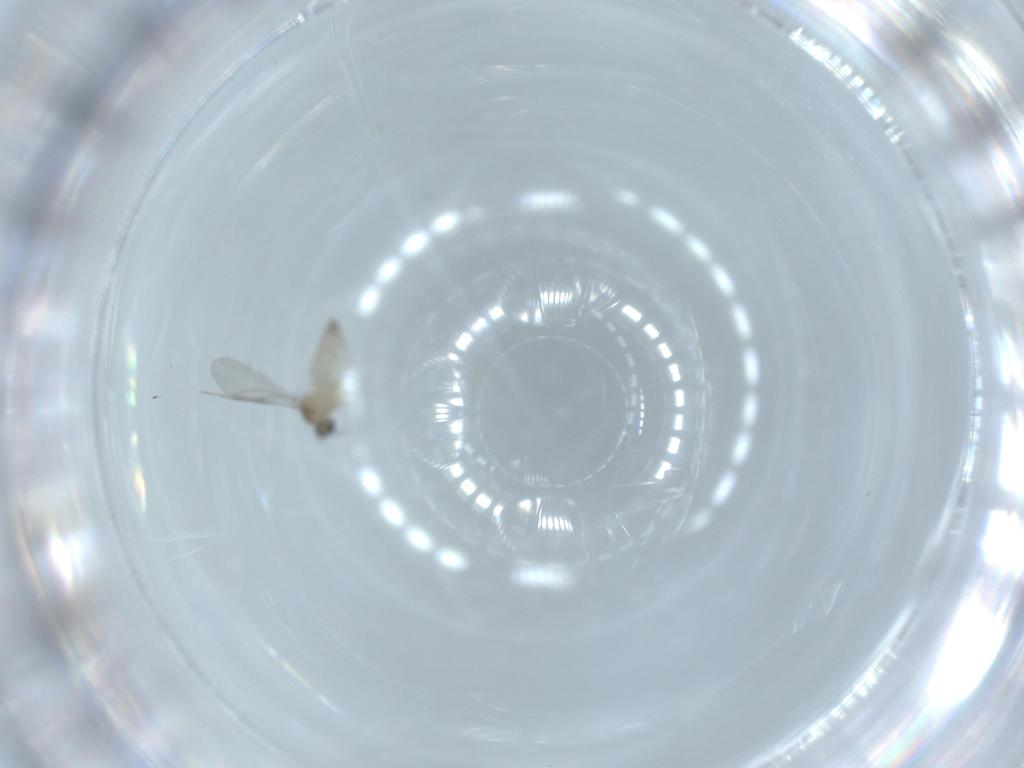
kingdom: Animalia
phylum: Arthropoda
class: Insecta
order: Diptera
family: Cecidomyiidae
